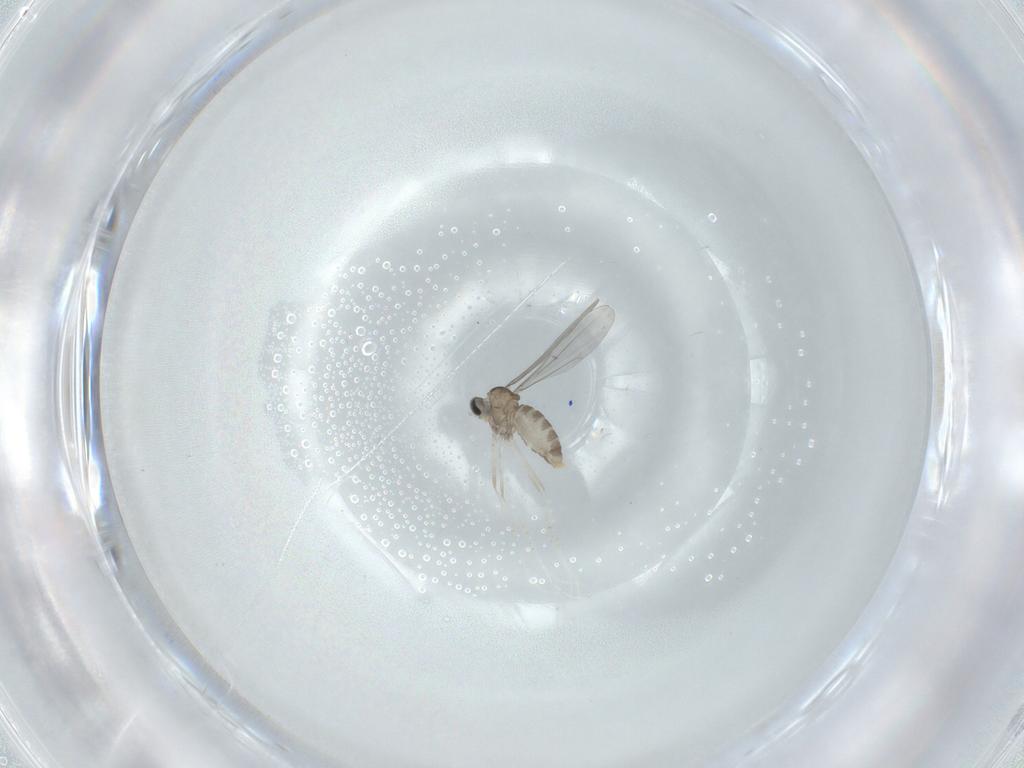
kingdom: Animalia
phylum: Arthropoda
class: Insecta
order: Diptera
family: Cecidomyiidae
